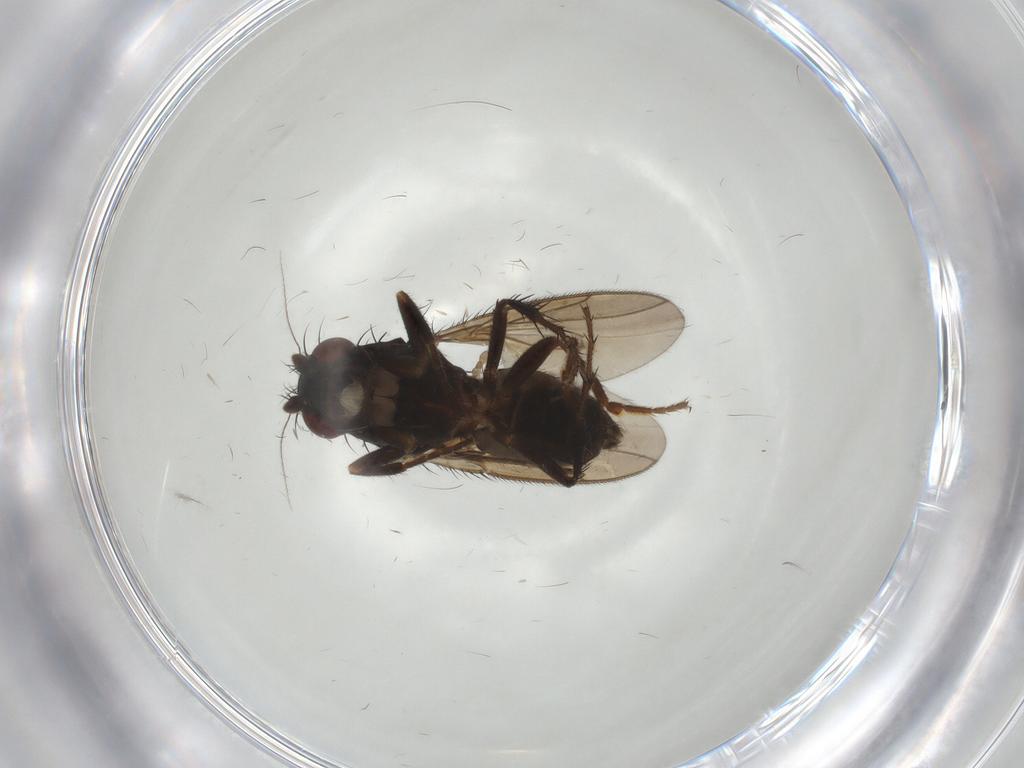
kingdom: Animalia
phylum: Arthropoda
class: Insecta
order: Diptera
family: Sphaeroceridae
